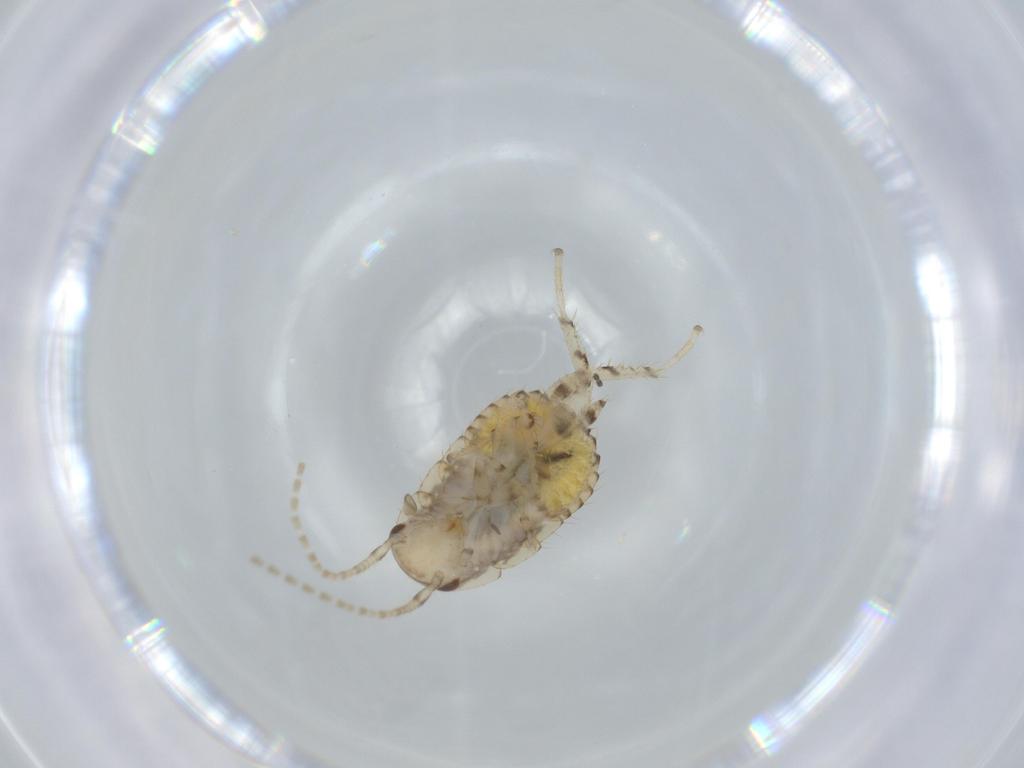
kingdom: Animalia
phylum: Arthropoda
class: Insecta
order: Blattodea
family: Ectobiidae
